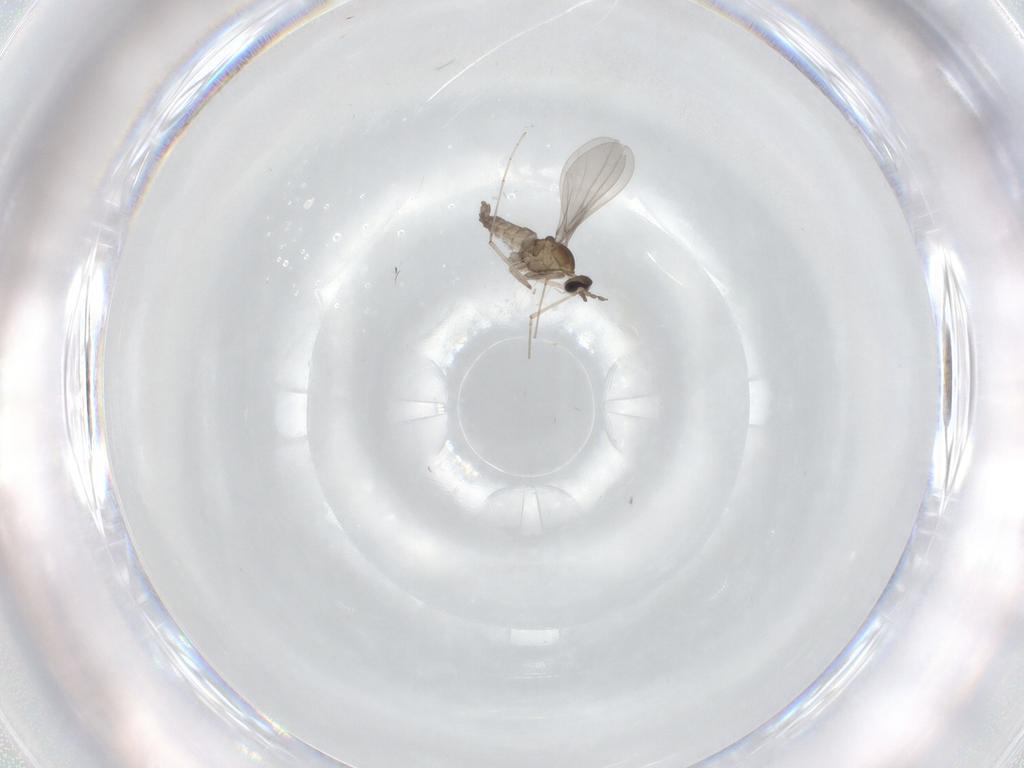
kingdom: Animalia
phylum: Arthropoda
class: Insecta
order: Diptera
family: Cecidomyiidae
